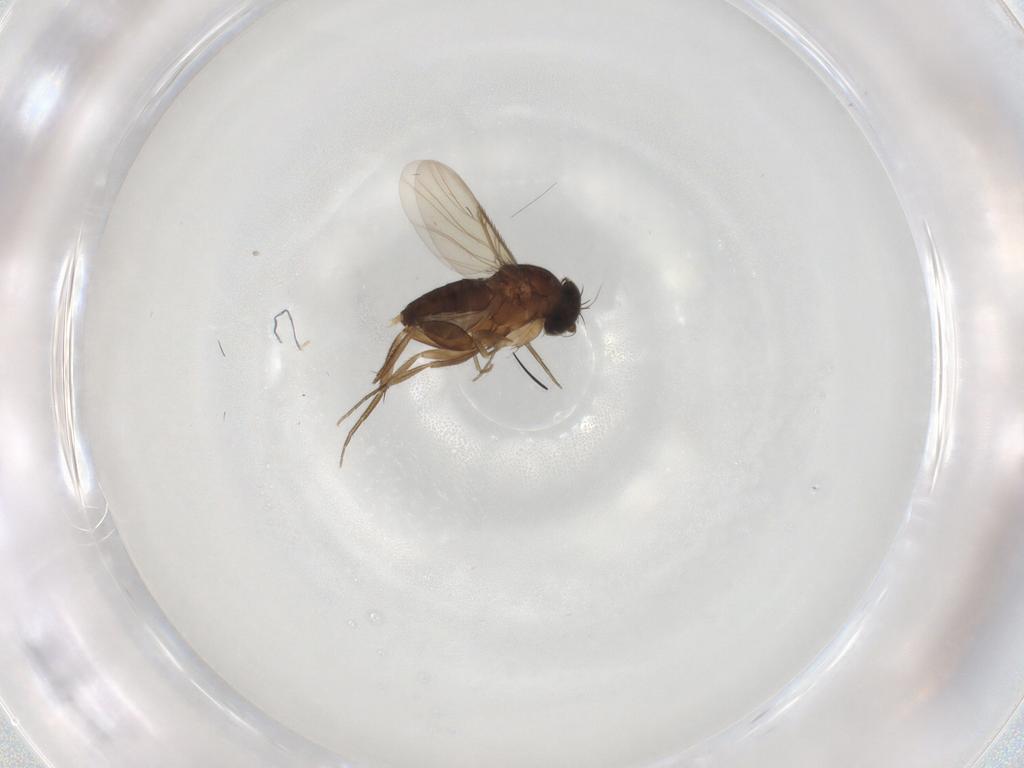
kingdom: Animalia
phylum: Arthropoda
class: Insecta
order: Diptera
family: Phoridae
